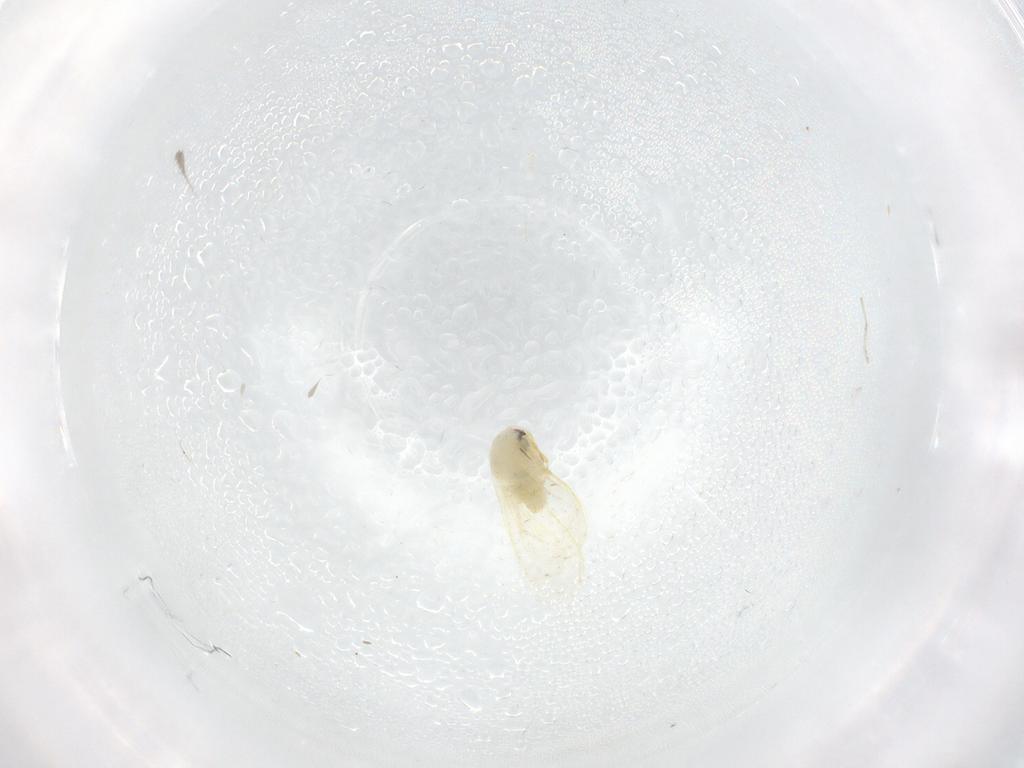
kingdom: Animalia
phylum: Arthropoda
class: Insecta
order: Hemiptera
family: Aleyrodidae
